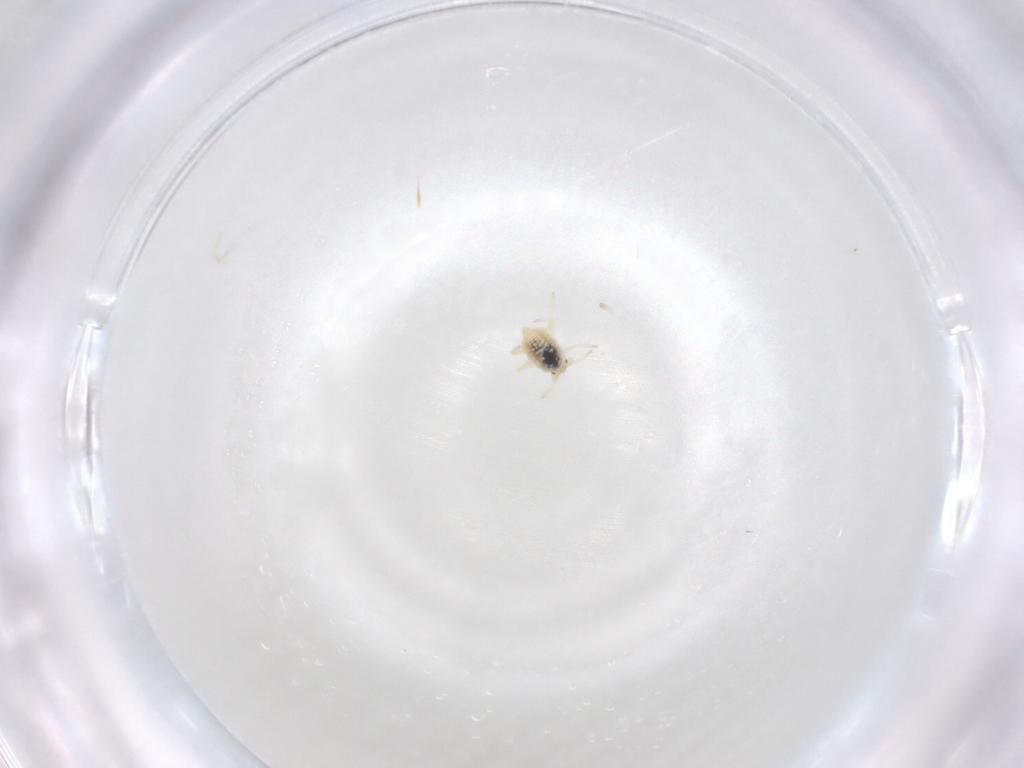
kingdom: Animalia
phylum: Arthropoda
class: Insecta
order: Neuroptera
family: Coniopterygidae
